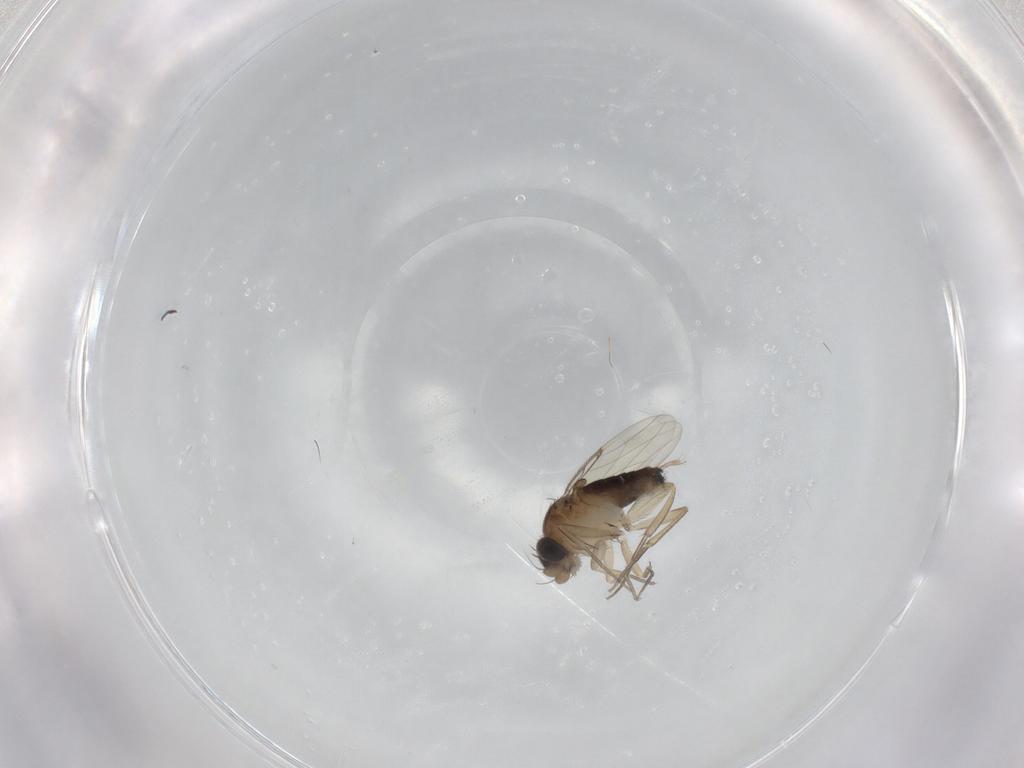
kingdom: Animalia
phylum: Arthropoda
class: Insecta
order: Diptera
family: Phoridae
